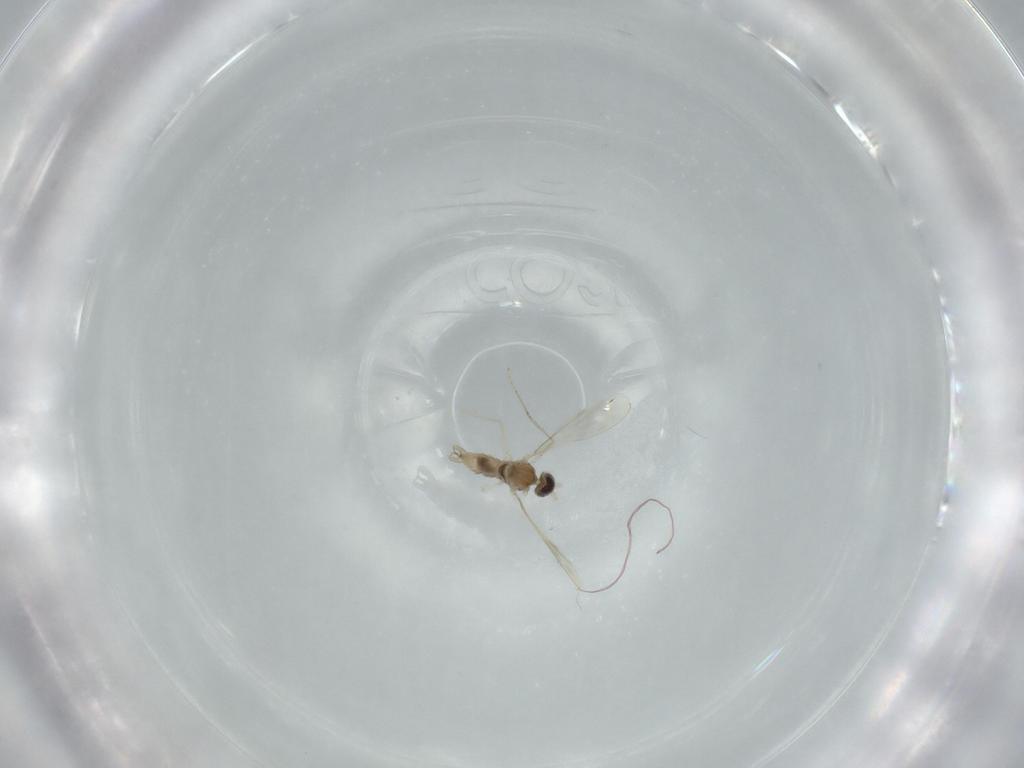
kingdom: Animalia
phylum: Arthropoda
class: Insecta
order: Diptera
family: Cecidomyiidae
